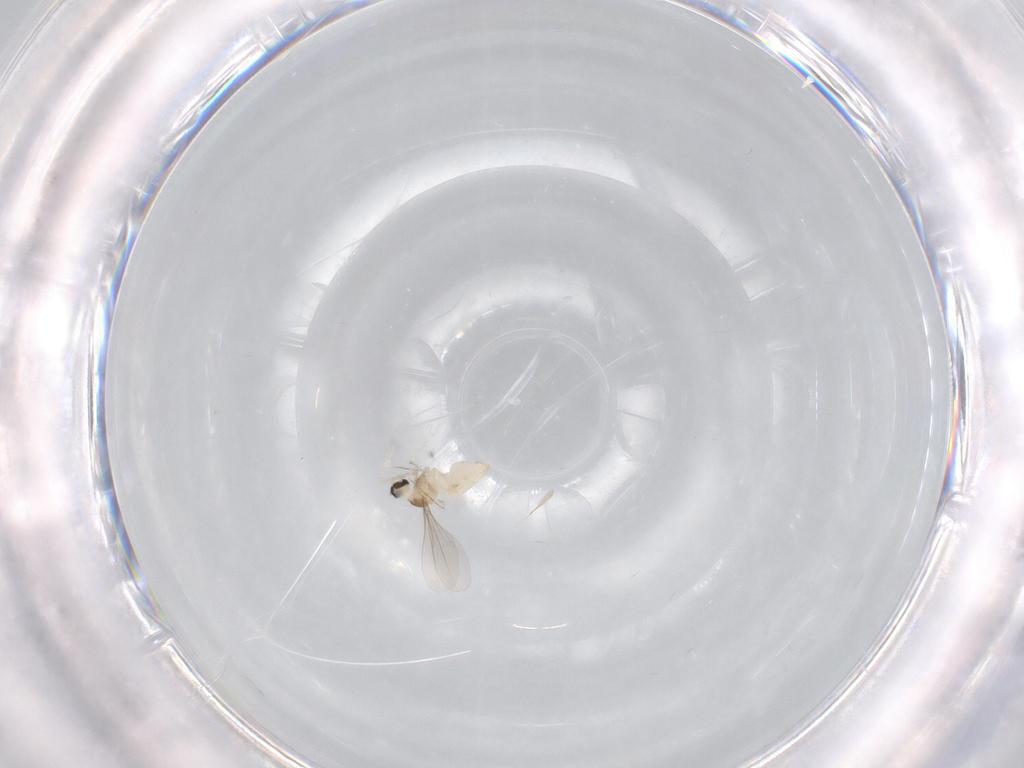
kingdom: Animalia
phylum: Arthropoda
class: Insecta
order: Diptera
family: Cecidomyiidae
